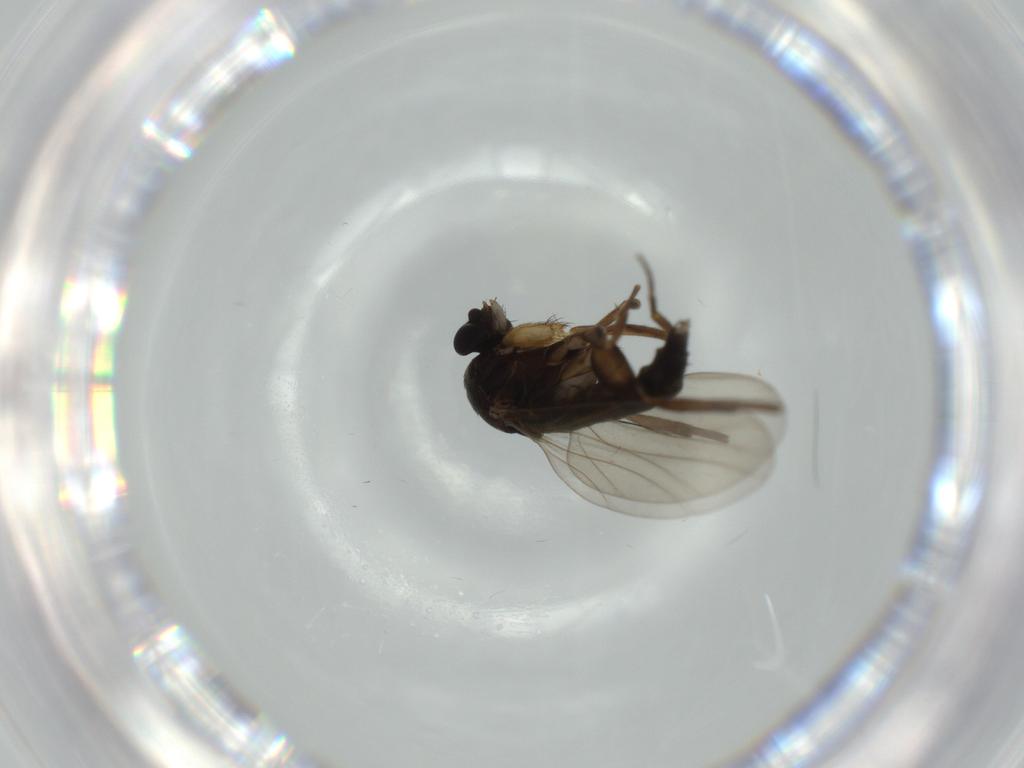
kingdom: Animalia
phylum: Arthropoda
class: Insecta
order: Diptera
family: Phoridae
